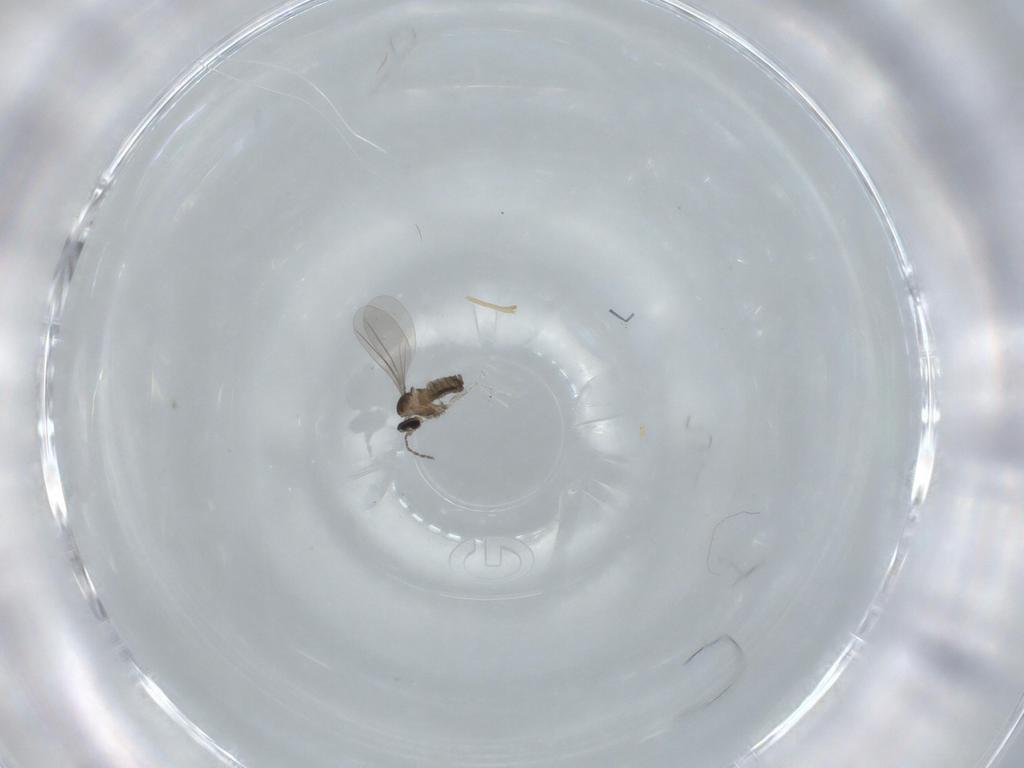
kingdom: Animalia
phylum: Arthropoda
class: Insecta
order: Diptera
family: Cecidomyiidae
